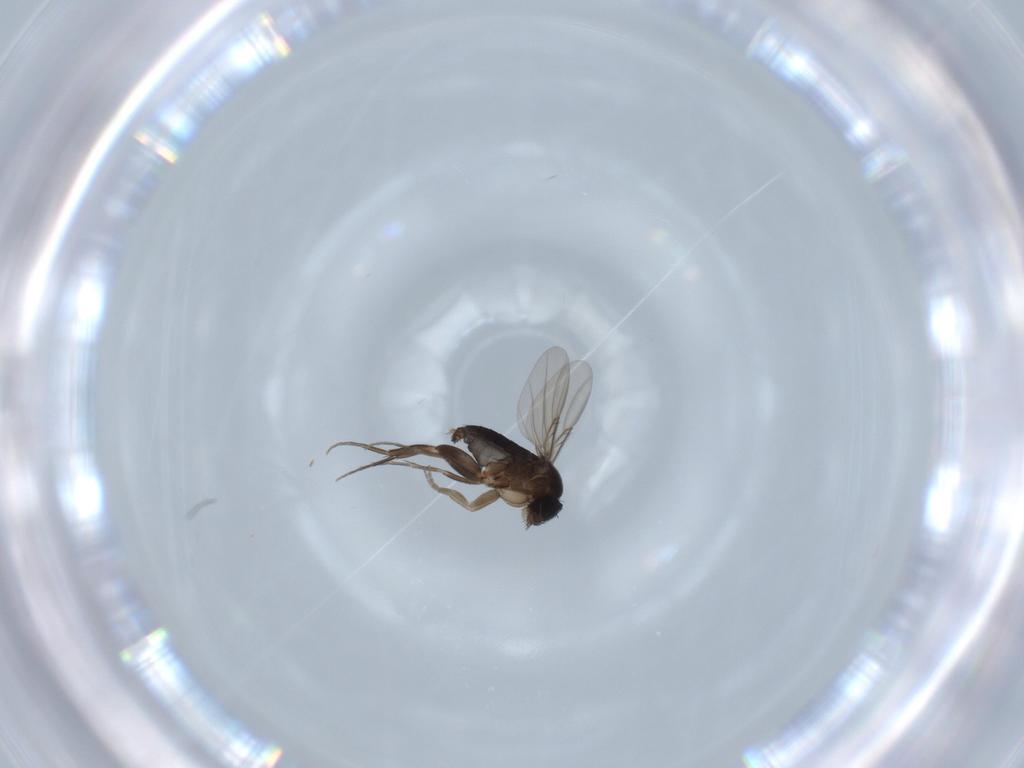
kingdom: Animalia
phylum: Arthropoda
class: Insecta
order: Diptera
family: Phoridae
